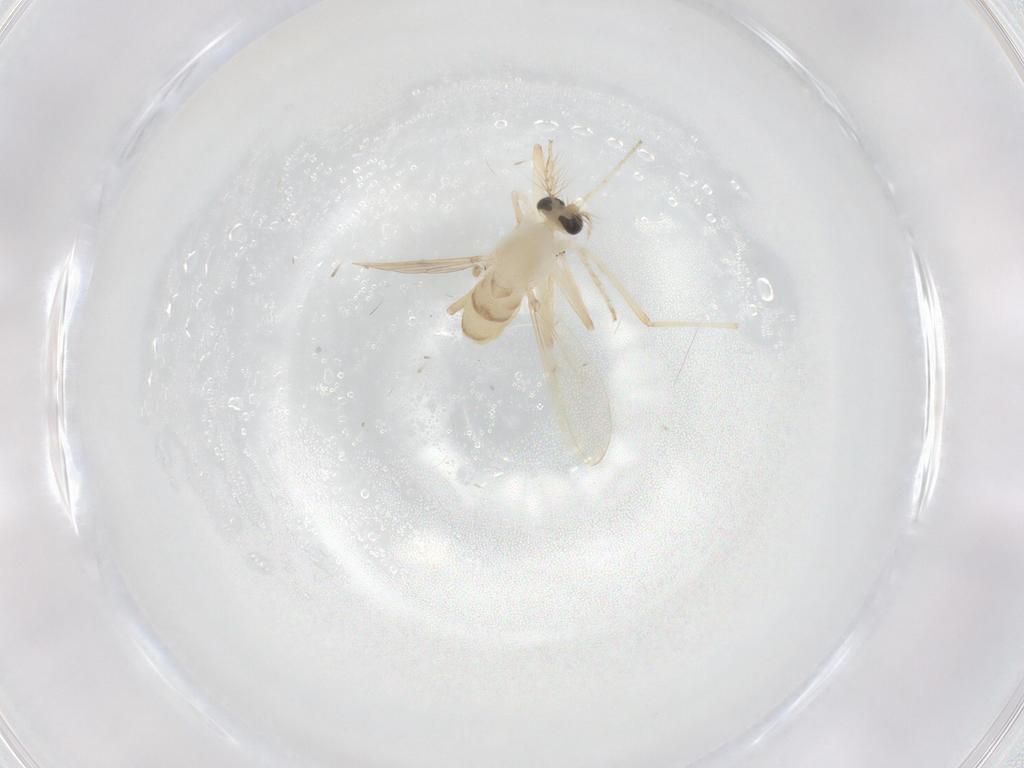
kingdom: Animalia
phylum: Arthropoda
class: Insecta
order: Diptera
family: Chironomidae
